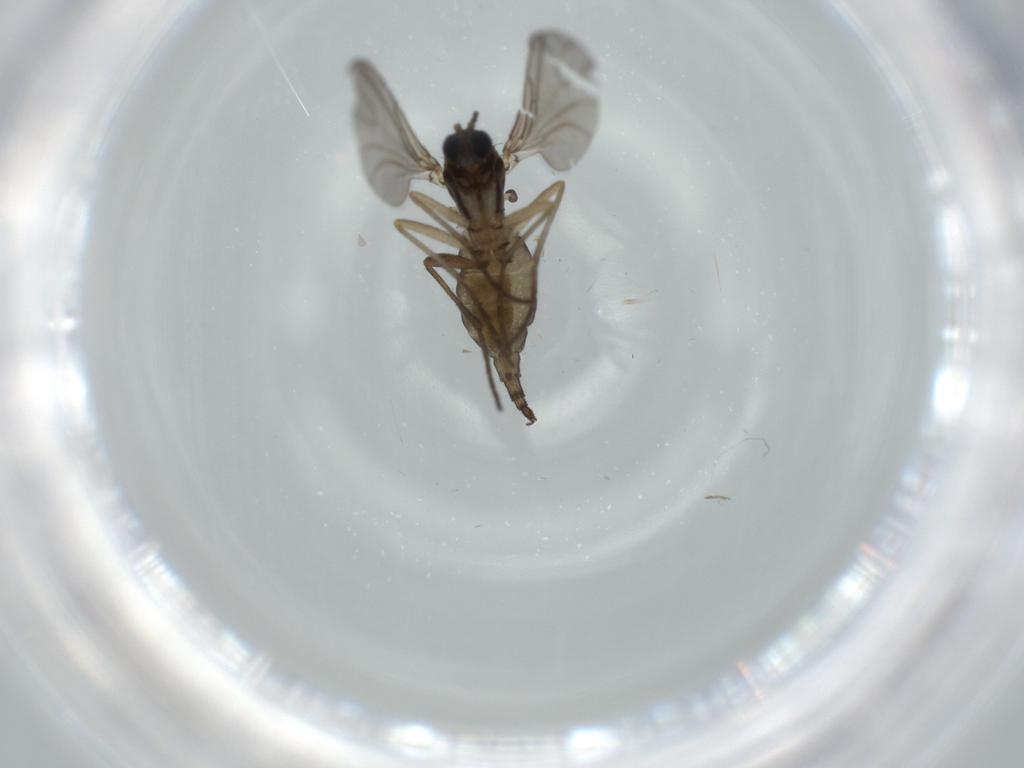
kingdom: Animalia
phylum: Arthropoda
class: Insecta
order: Diptera
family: Sciaridae
